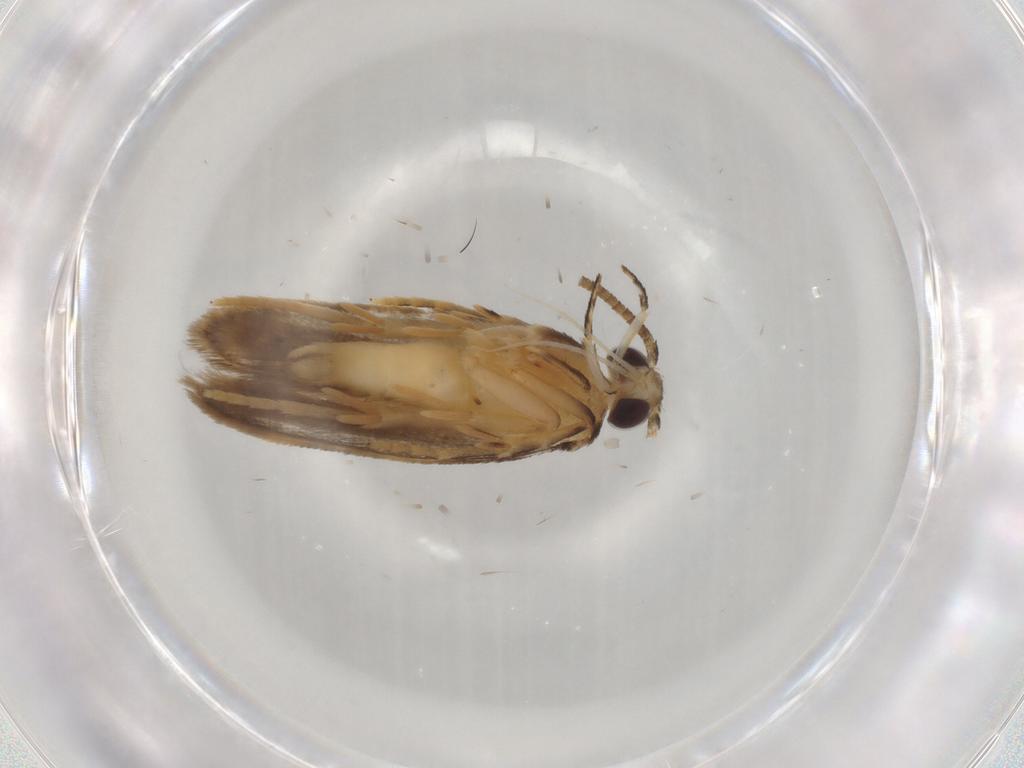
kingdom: Animalia
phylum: Arthropoda
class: Insecta
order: Lepidoptera
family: Autostichidae
